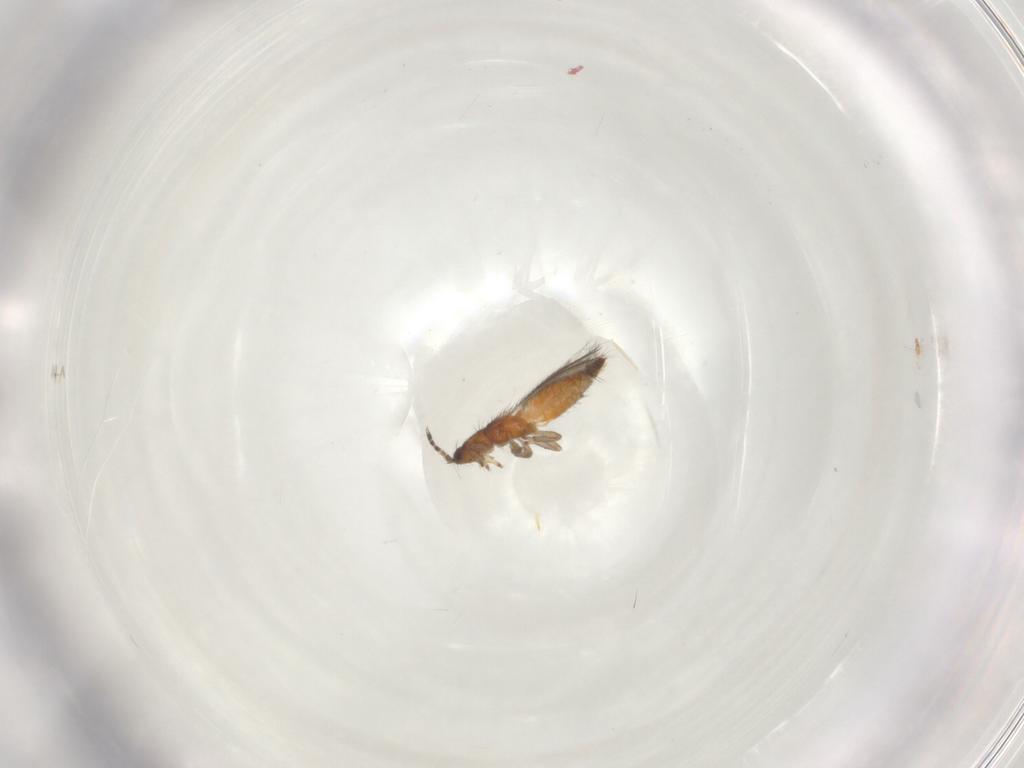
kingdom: Animalia
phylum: Arthropoda
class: Insecta
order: Thysanoptera
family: Thripidae
